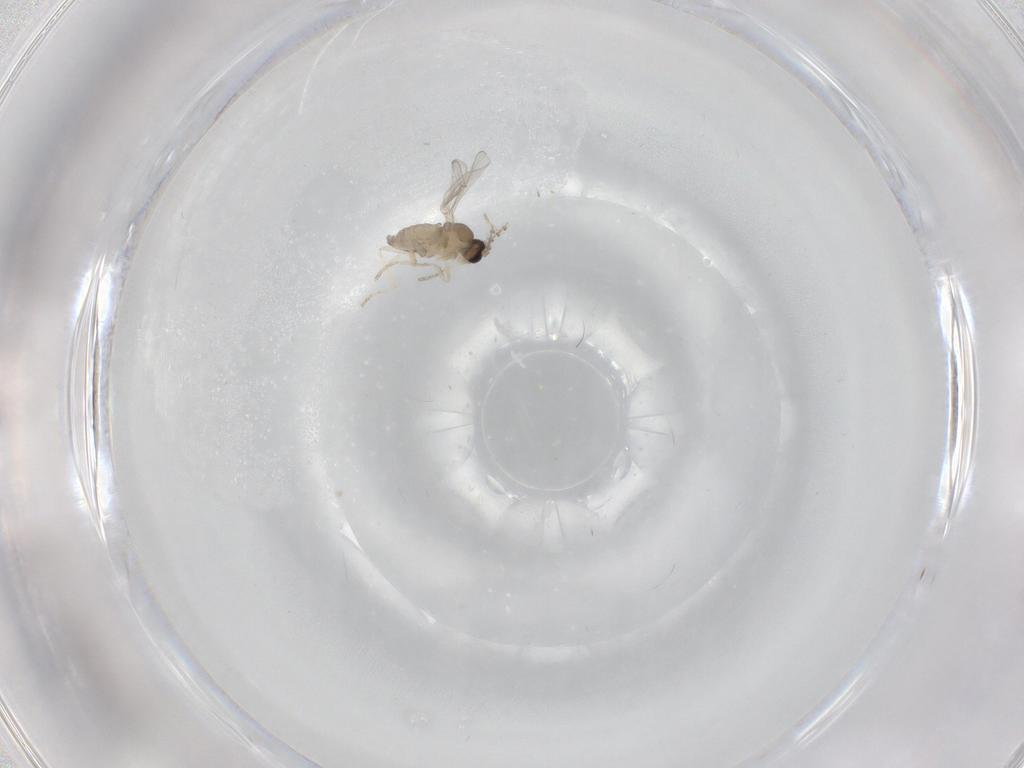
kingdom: Animalia
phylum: Arthropoda
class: Insecta
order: Diptera
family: Cecidomyiidae
